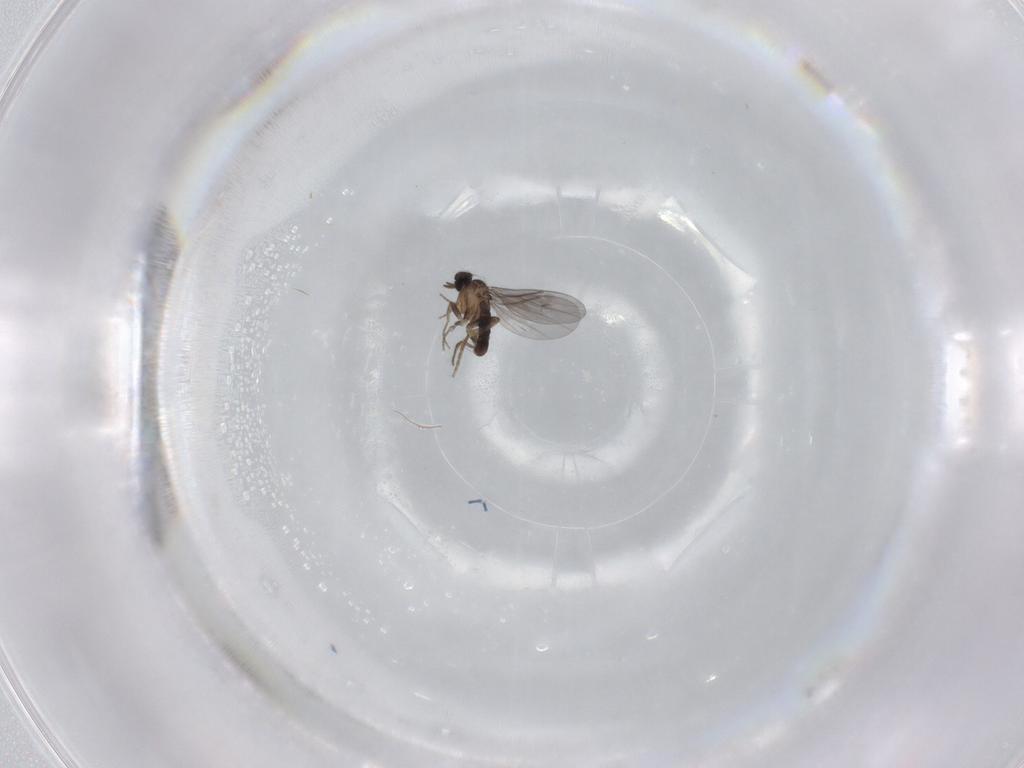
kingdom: Animalia
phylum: Arthropoda
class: Insecta
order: Diptera
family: Phoridae
